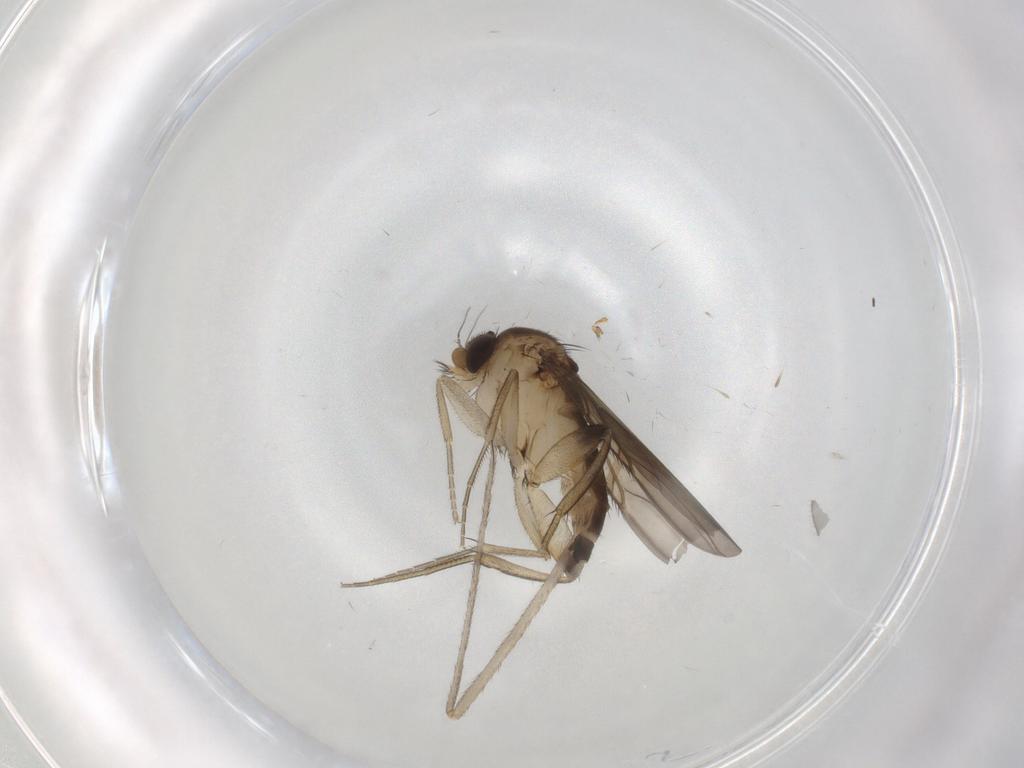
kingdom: Animalia
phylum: Arthropoda
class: Insecta
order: Diptera
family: Phoridae
